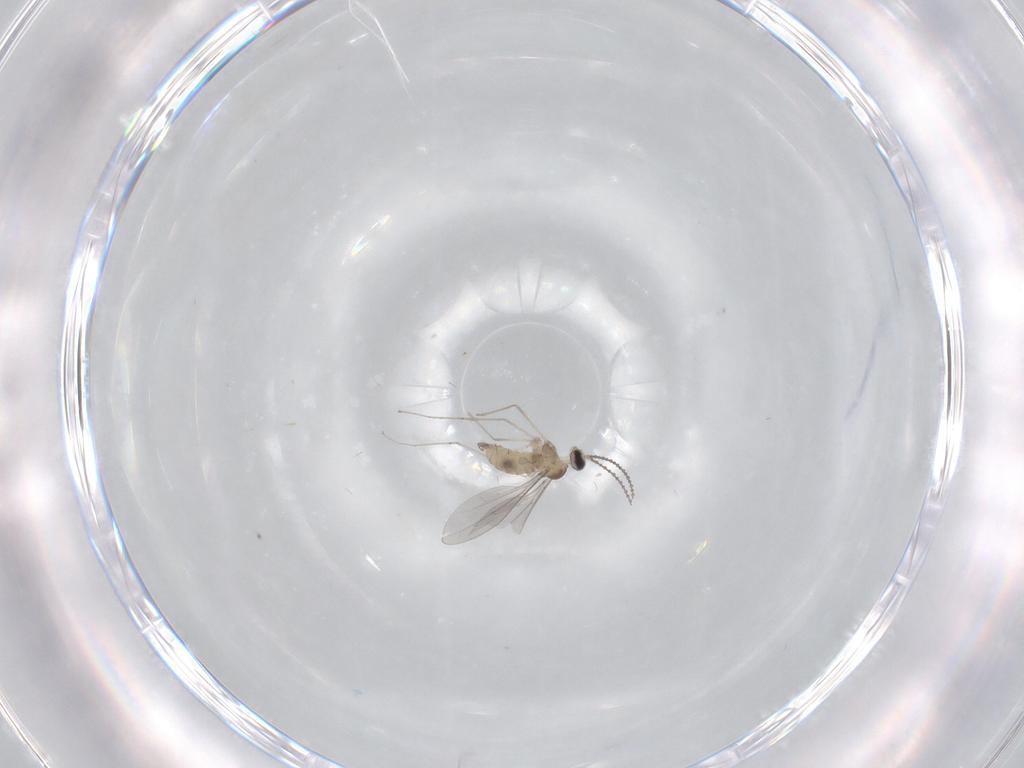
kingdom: Animalia
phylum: Arthropoda
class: Insecta
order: Diptera
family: Cecidomyiidae
